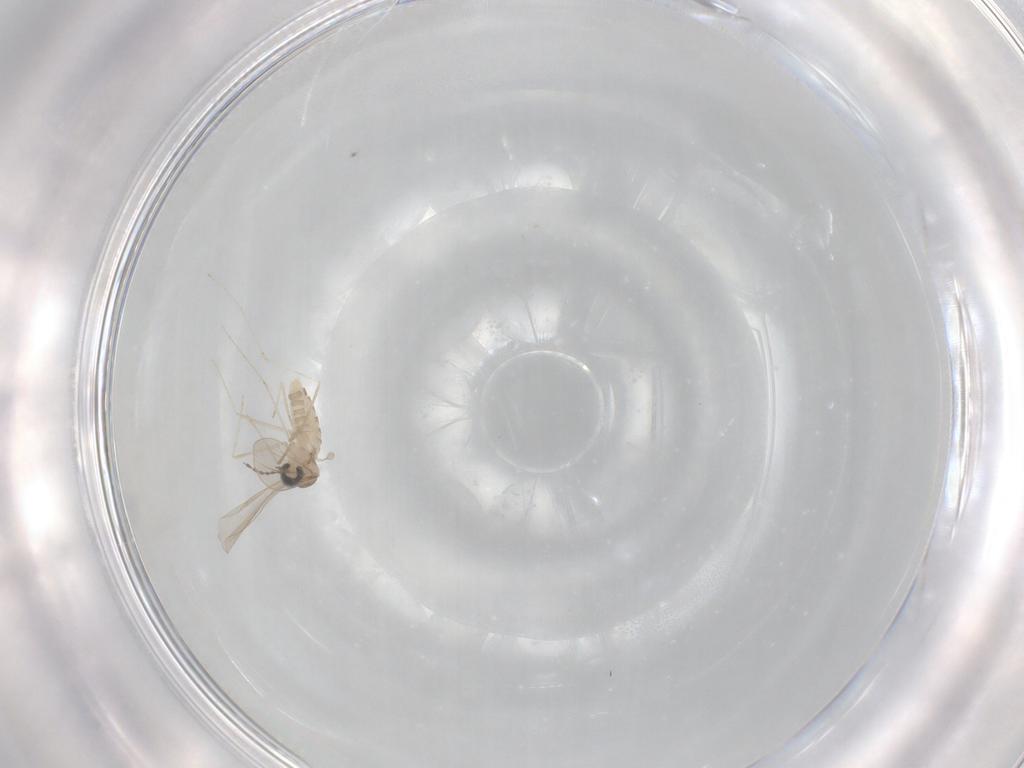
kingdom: Animalia
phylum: Arthropoda
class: Insecta
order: Diptera
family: Cecidomyiidae
